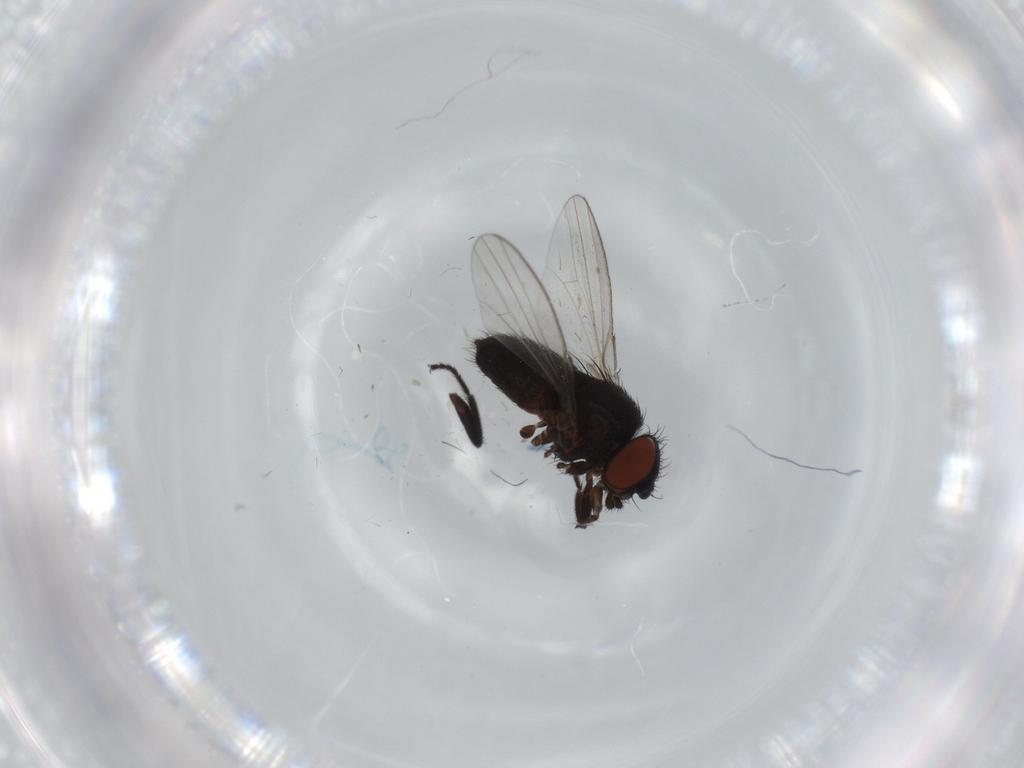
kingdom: Animalia
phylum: Arthropoda
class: Insecta
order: Diptera
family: Milichiidae
